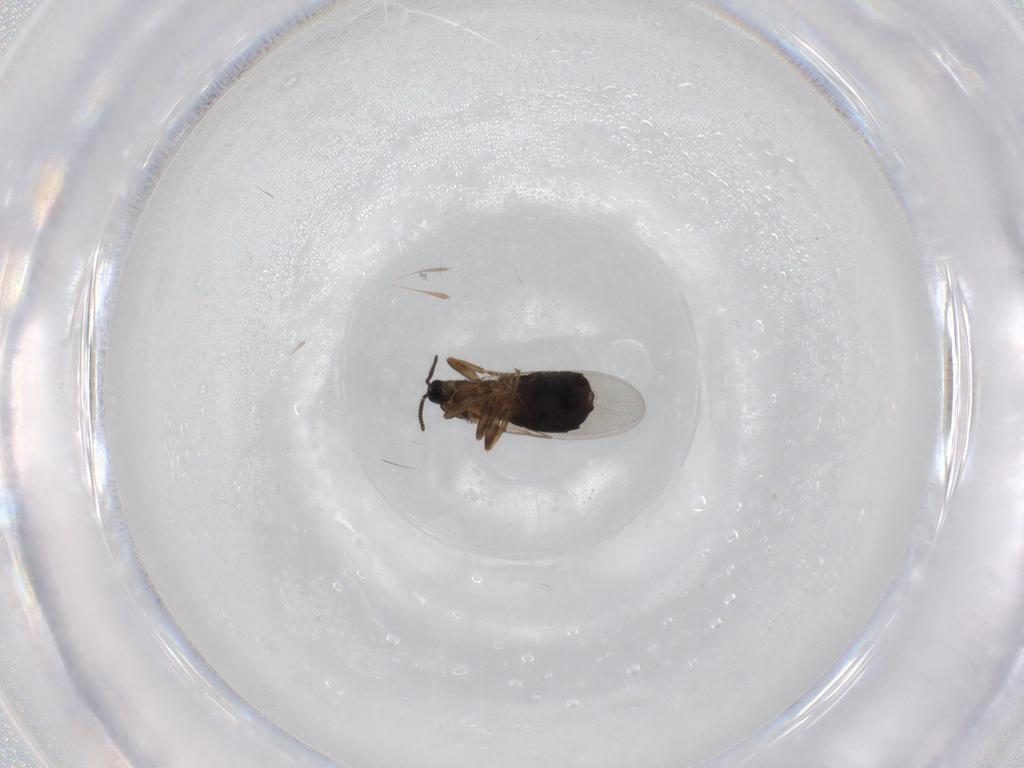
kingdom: Animalia
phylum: Arthropoda
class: Insecta
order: Diptera
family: Scatopsidae
